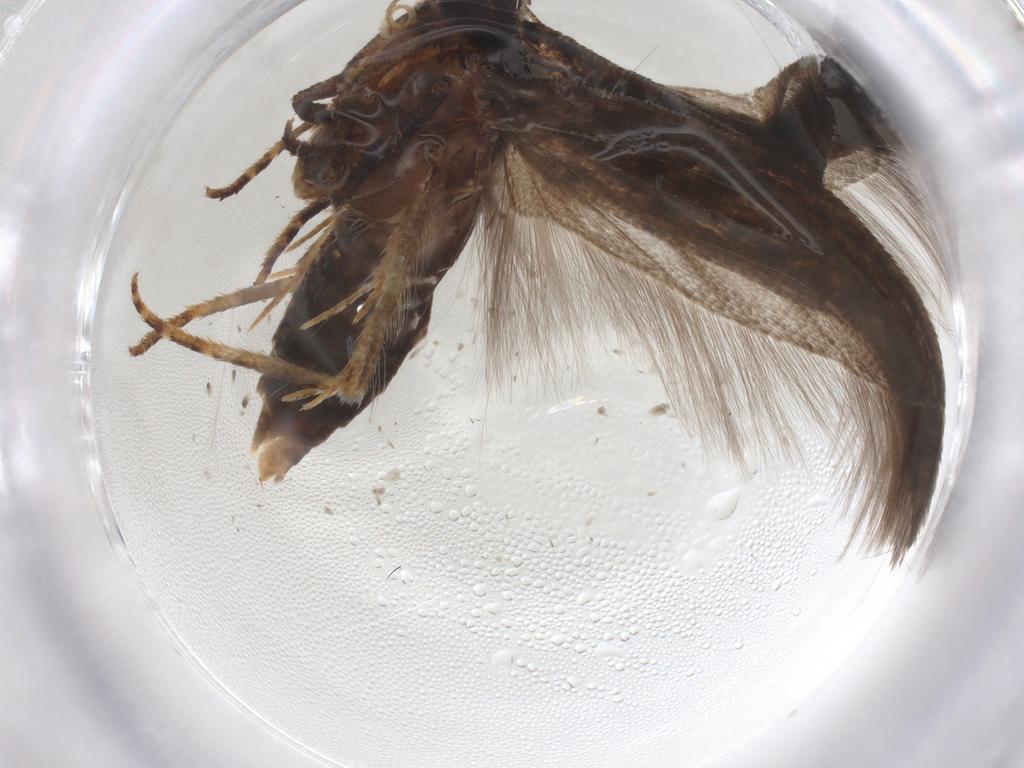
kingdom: Animalia
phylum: Arthropoda
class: Insecta
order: Lepidoptera
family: Gelechiidae
